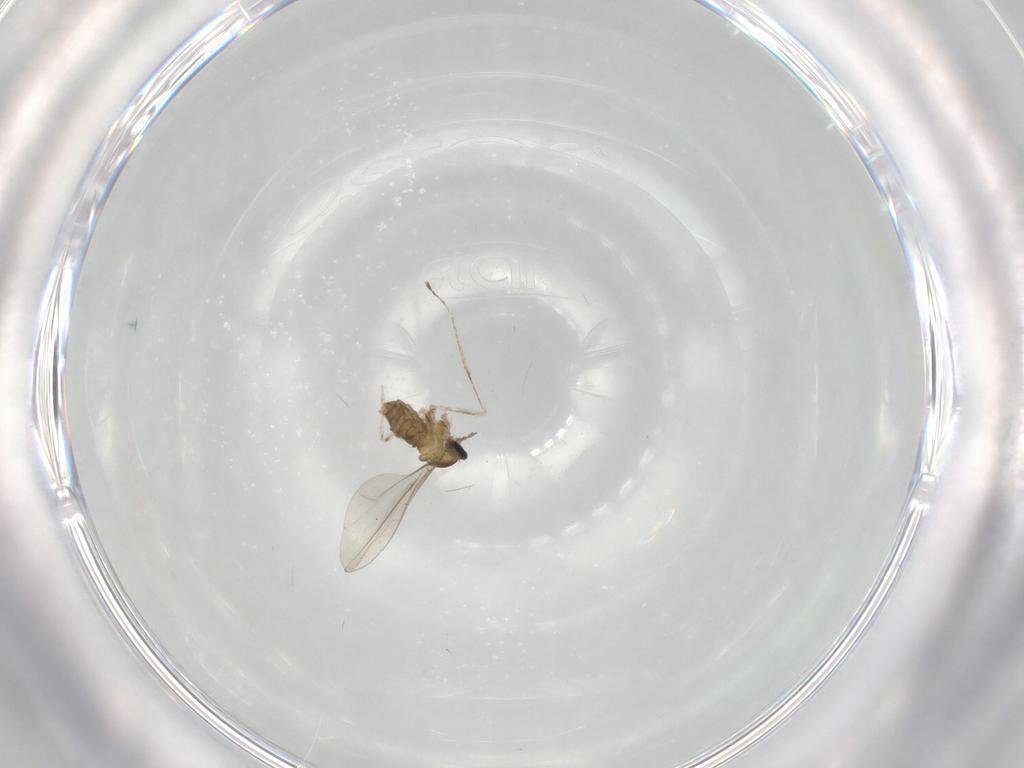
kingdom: Animalia
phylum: Arthropoda
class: Insecta
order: Diptera
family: Cecidomyiidae
